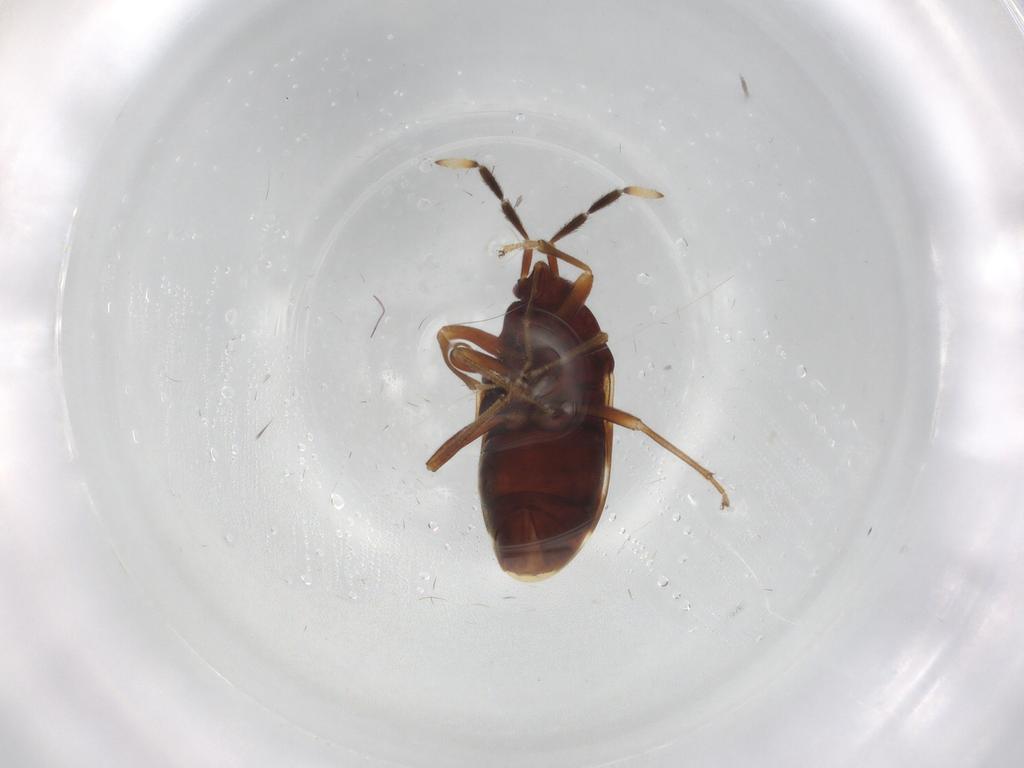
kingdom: Animalia
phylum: Arthropoda
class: Insecta
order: Hemiptera
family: Rhyparochromidae
